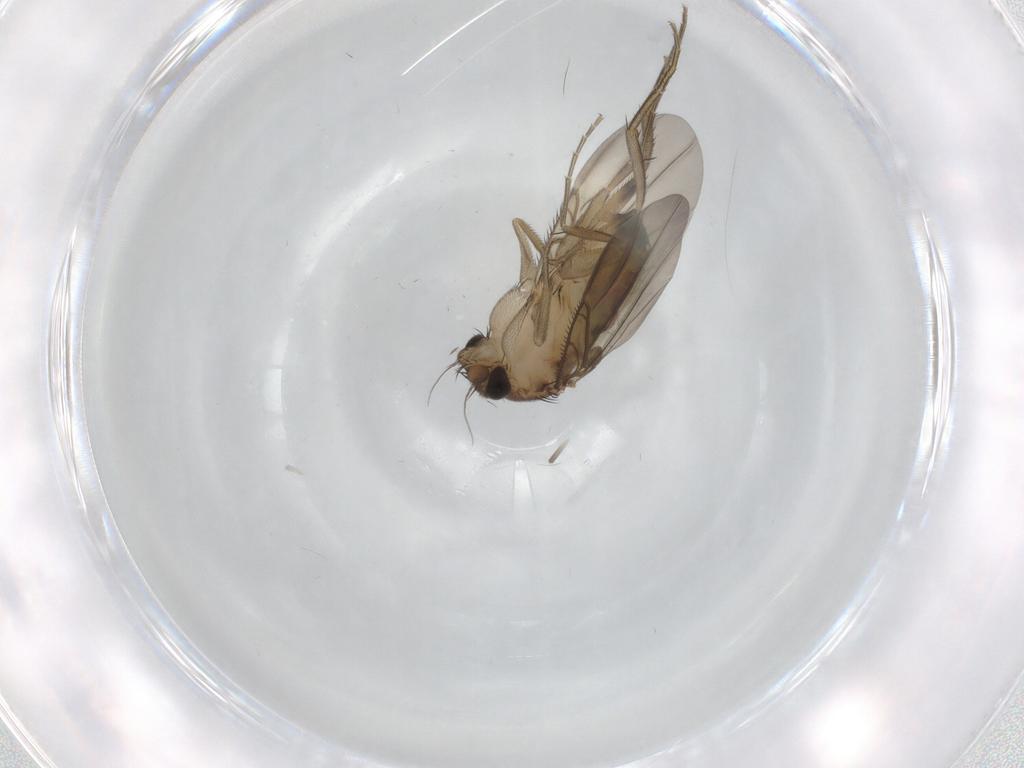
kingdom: Animalia
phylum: Arthropoda
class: Insecta
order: Diptera
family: Phoridae
